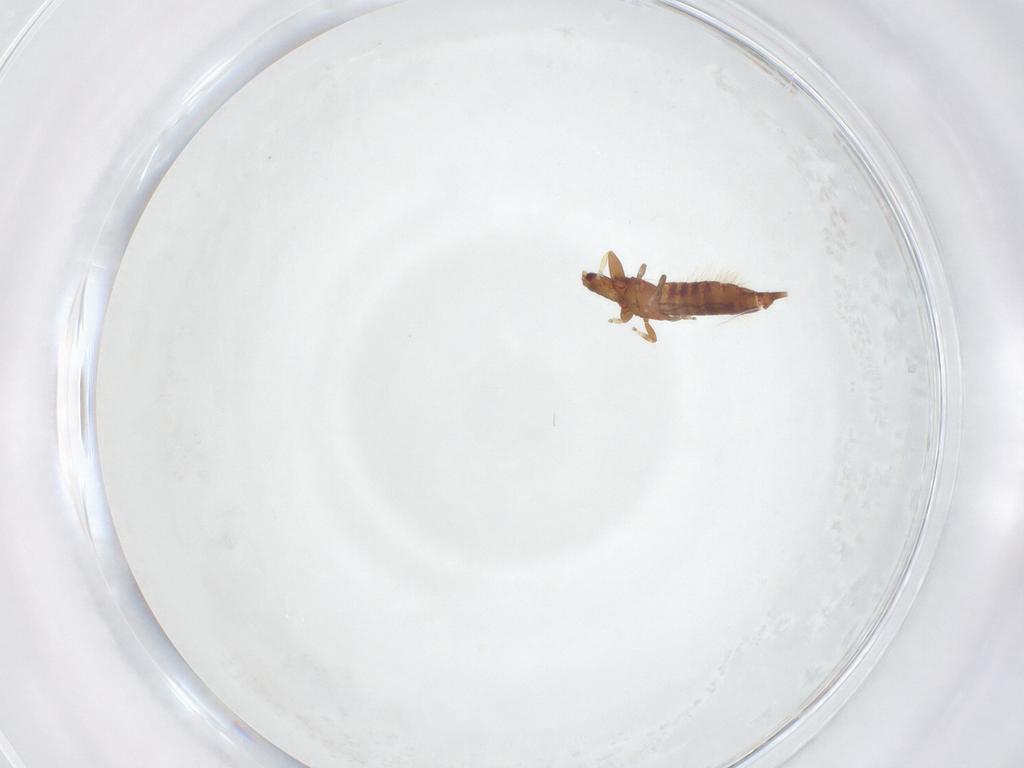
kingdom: Animalia
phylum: Arthropoda
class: Insecta
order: Thysanoptera
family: Phlaeothripidae
